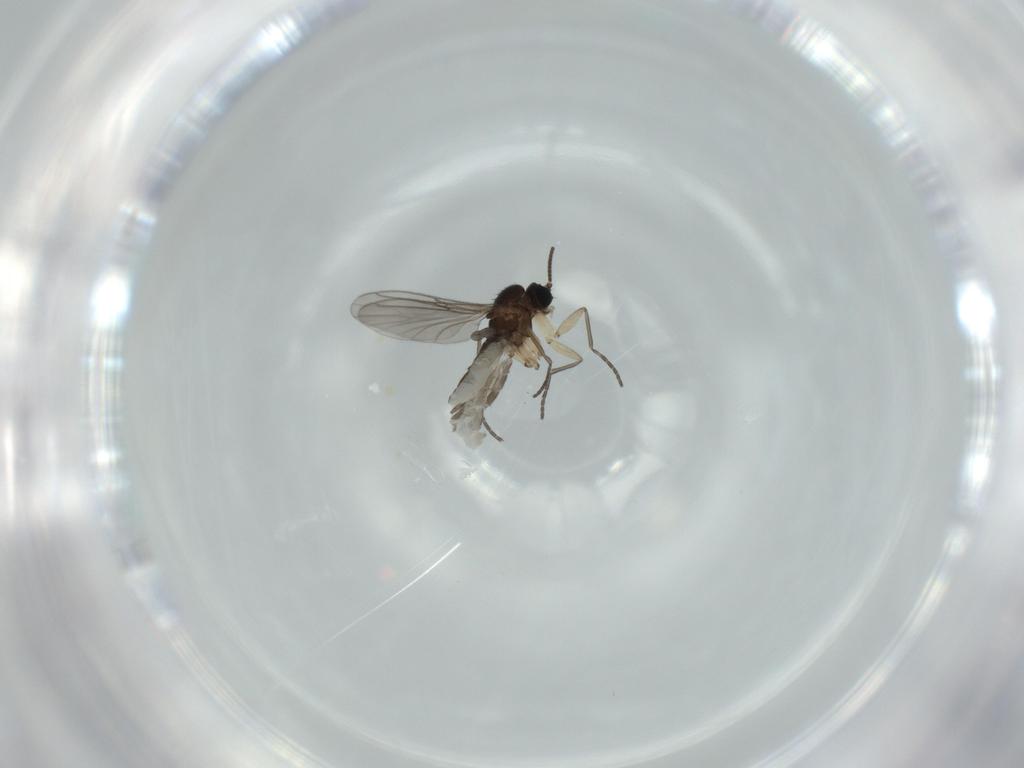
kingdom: Animalia
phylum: Arthropoda
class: Insecta
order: Diptera
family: Sciaridae
